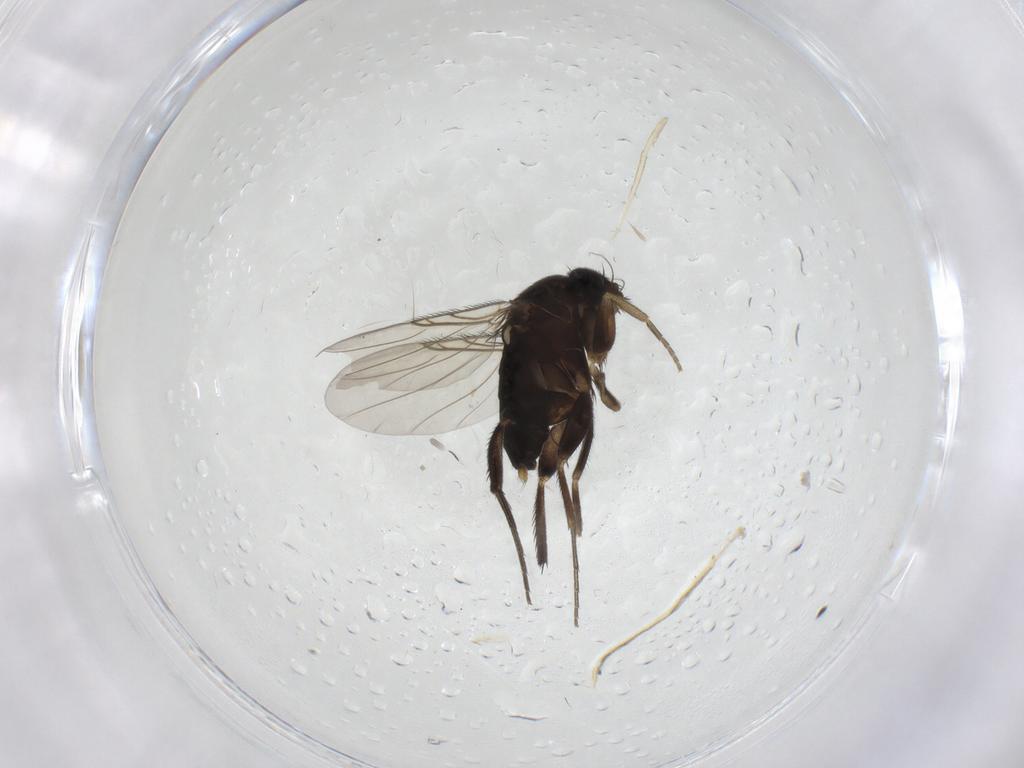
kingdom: Animalia
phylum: Arthropoda
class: Insecta
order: Diptera
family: Phoridae
